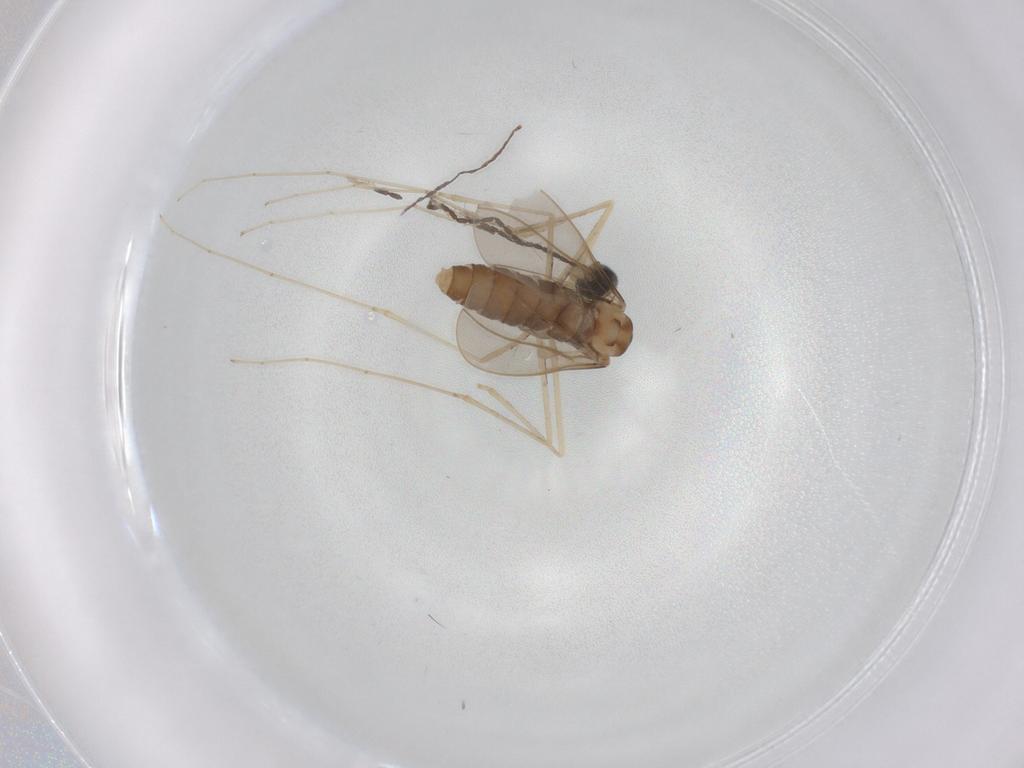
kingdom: Animalia
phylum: Arthropoda
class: Insecta
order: Diptera
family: Cecidomyiidae
